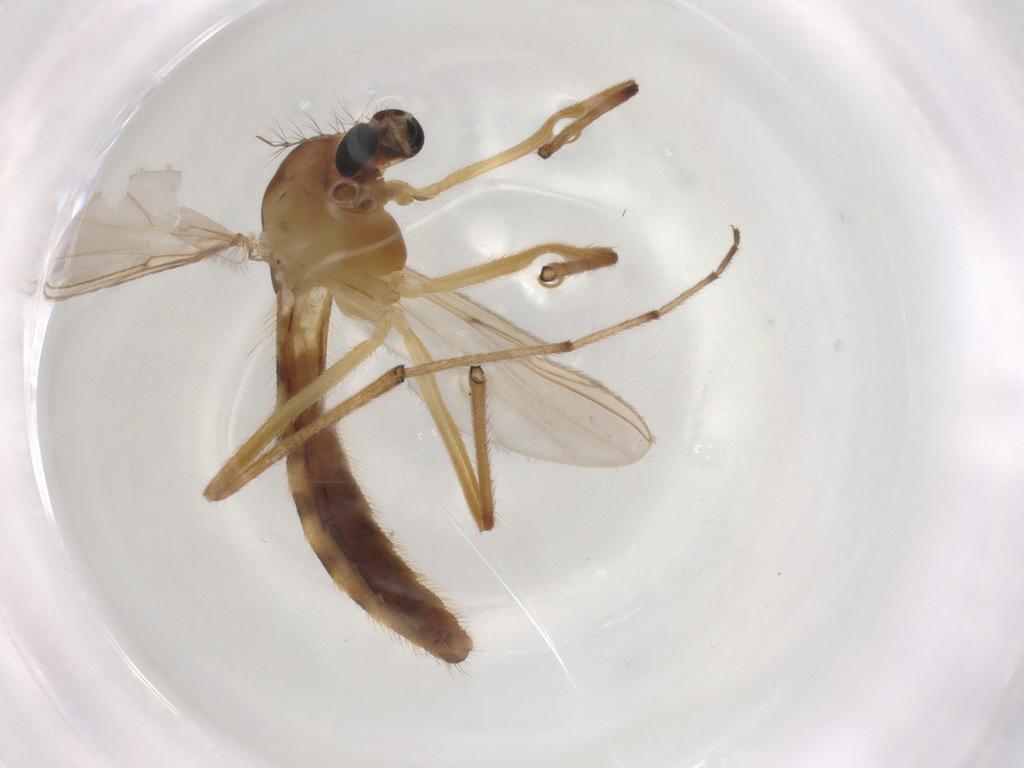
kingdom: Animalia
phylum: Arthropoda
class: Insecta
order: Diptera
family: Chironomidae
